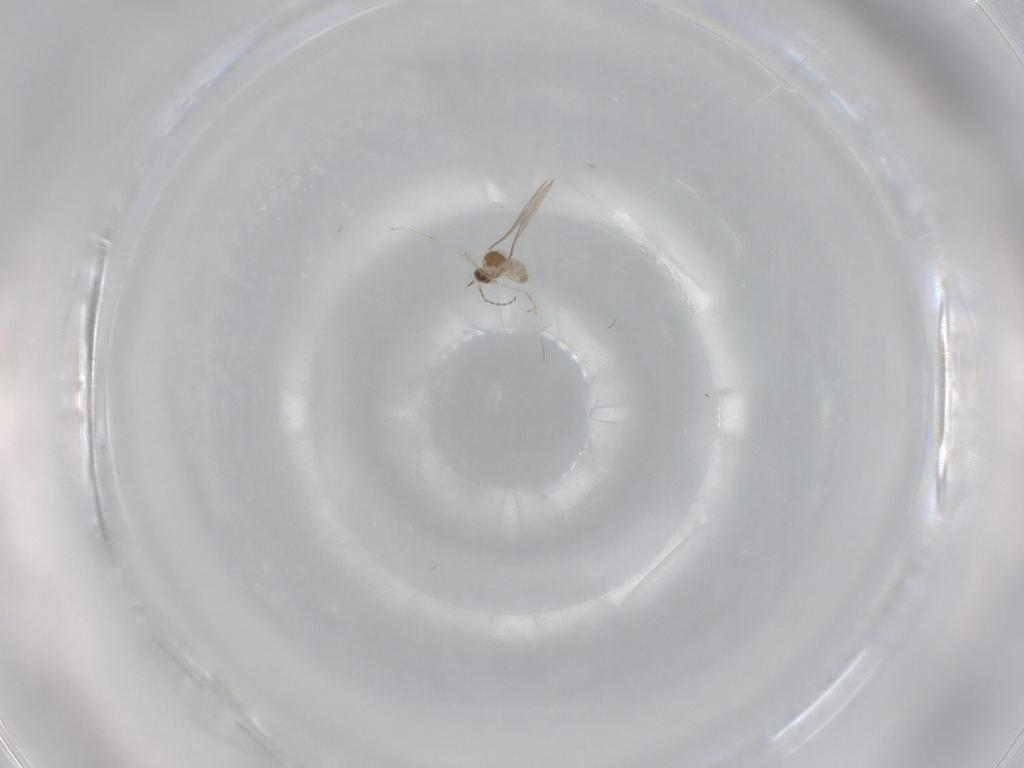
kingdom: Animalia
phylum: Arthropoda
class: Insecta
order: Diptera
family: Cecidomyiidae
